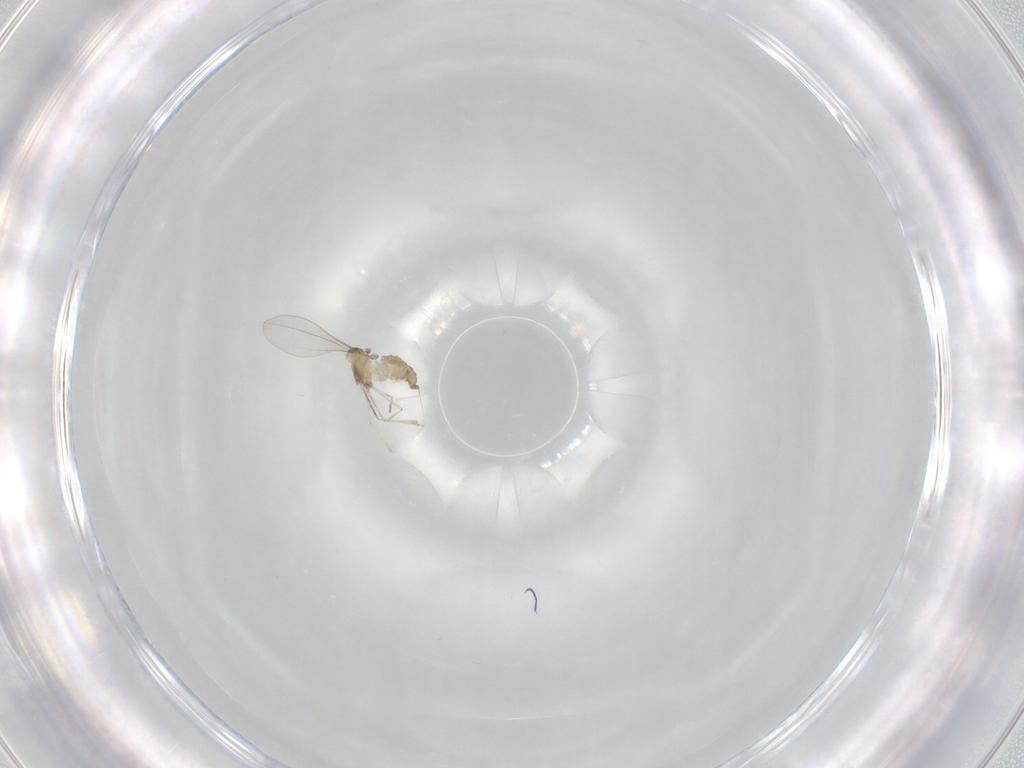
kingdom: Animalia
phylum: Arthropoda
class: Insecta
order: Diptera
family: Cecidomyiidae
